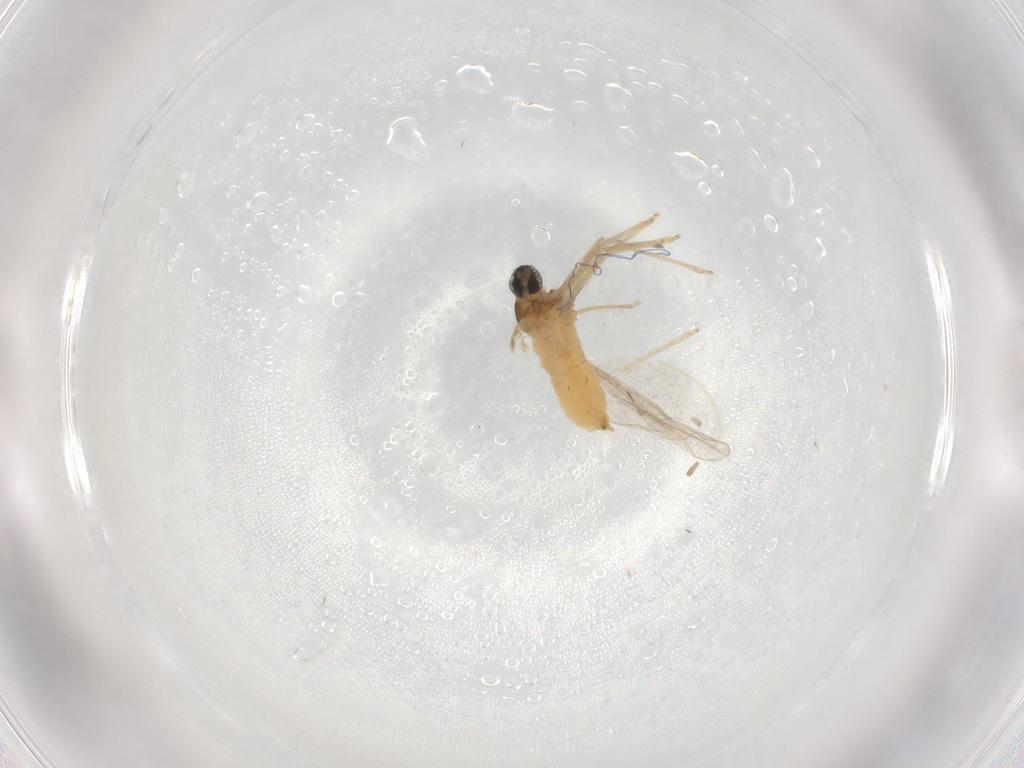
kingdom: Animalia
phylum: Arthropoda
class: Insecta
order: Diptera
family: Cecidomyiidae
